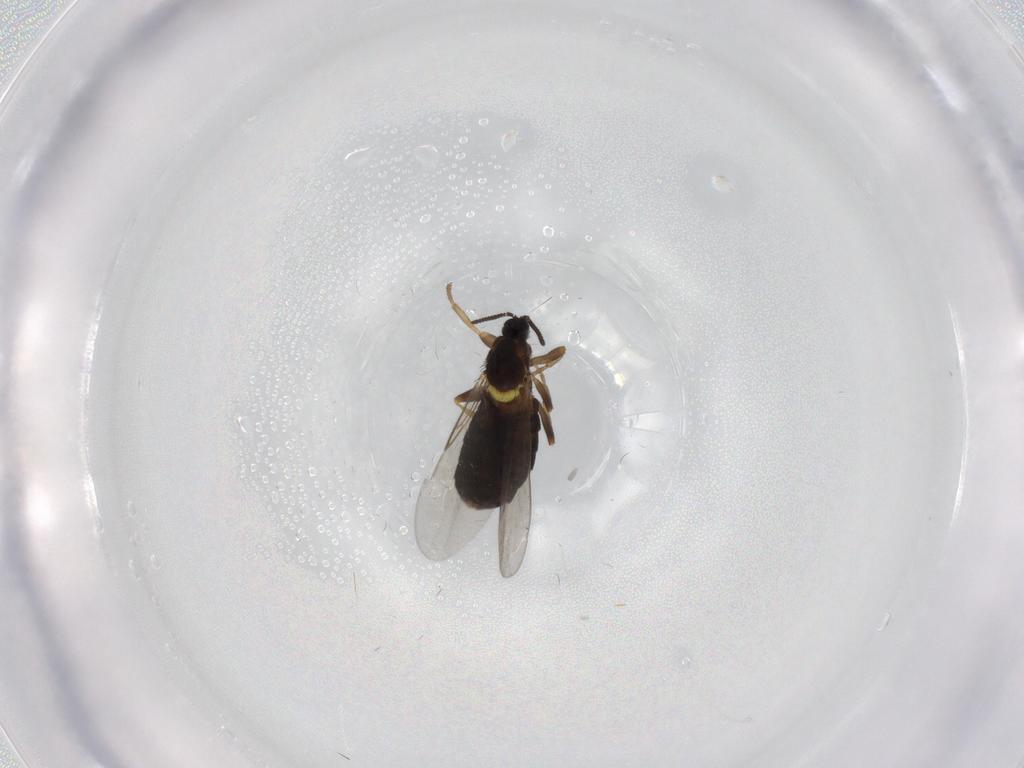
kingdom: Animalia
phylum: Arthropoda
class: Insecta
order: Diptera
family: Scatopsidae
